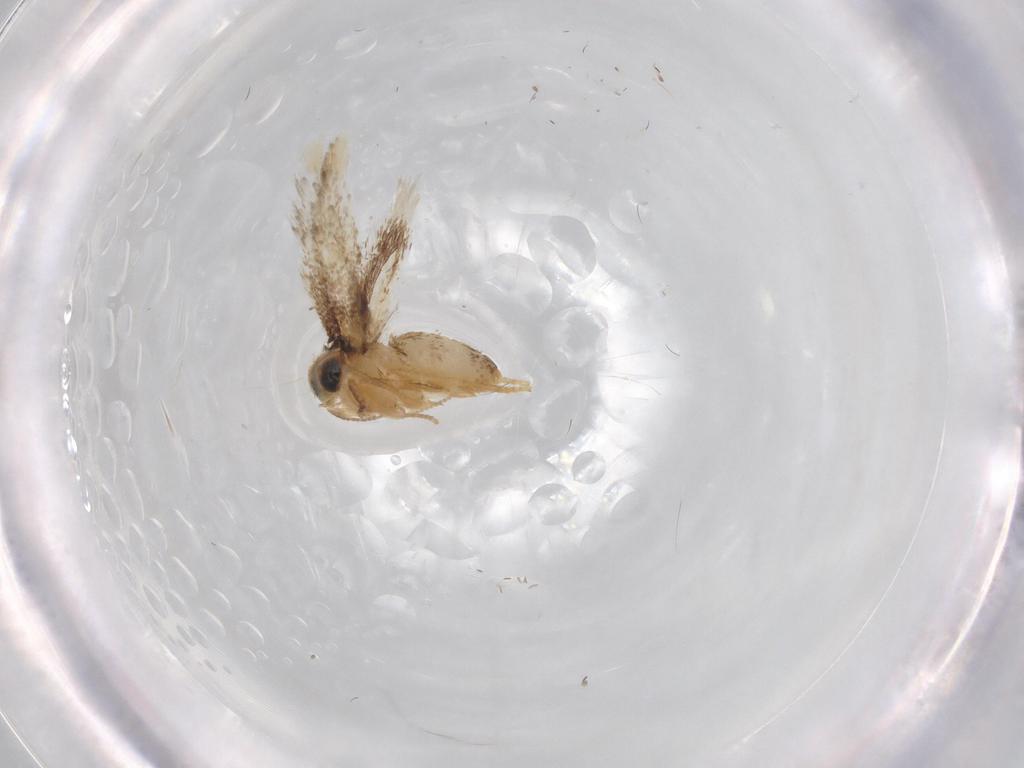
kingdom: Animalia
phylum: Arthropoda
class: Insecta
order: Lepidoptera
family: Nepticulidae
